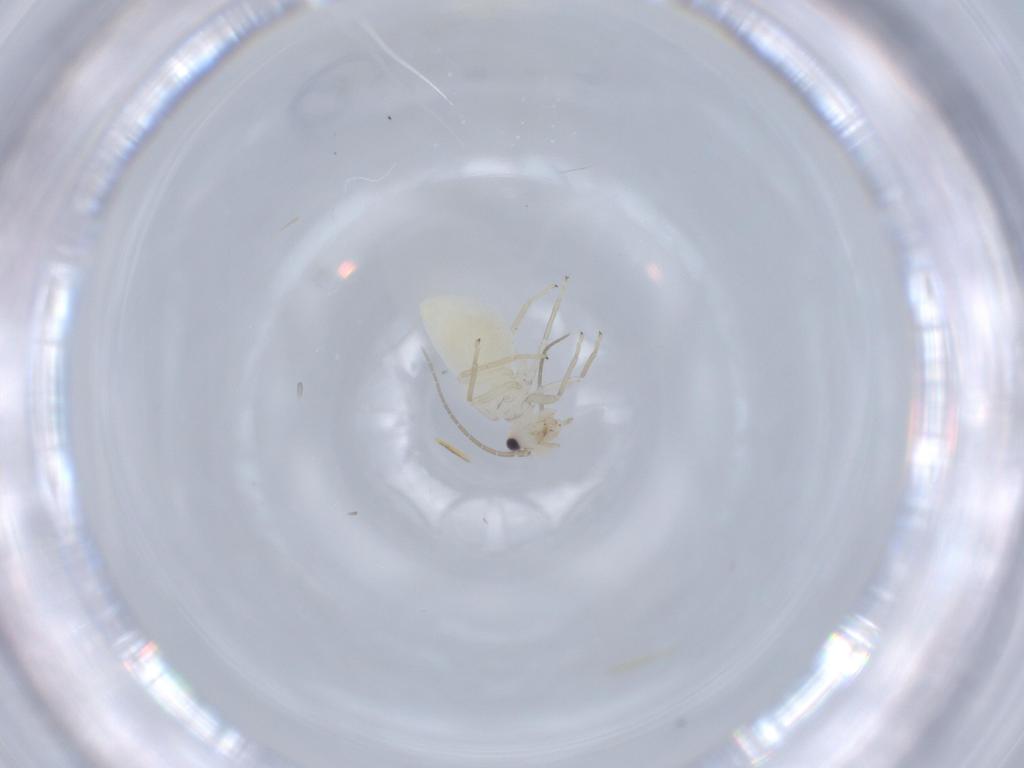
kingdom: Animalia
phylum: Arthropoda
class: Insecta
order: Psocodea
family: Caeciliusidae
